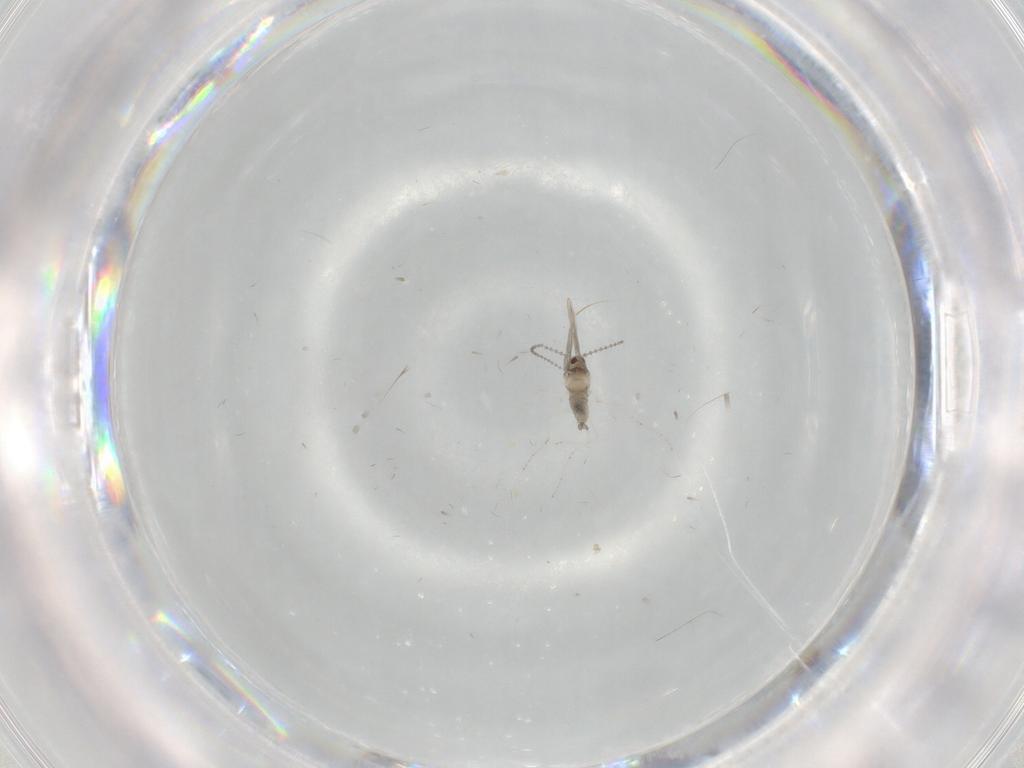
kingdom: Animalia
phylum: Arthropoda
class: Insecta
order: Diptera
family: Cecidomyiidae
